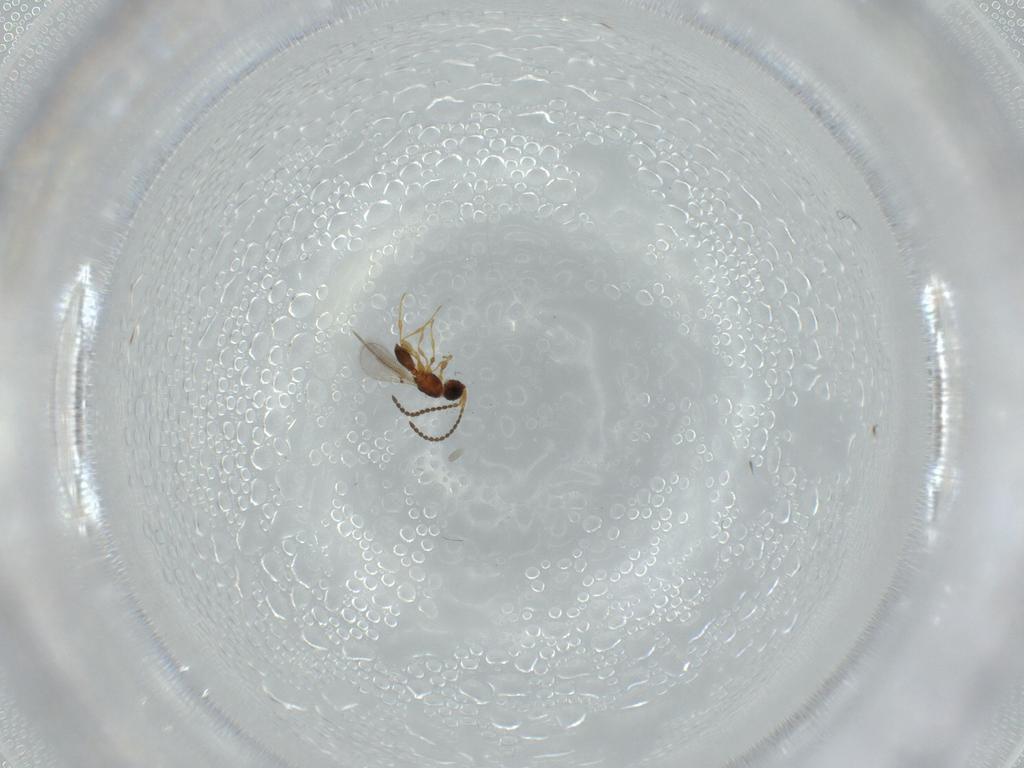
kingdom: Animalia
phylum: Arthropoda
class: Insecta
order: Hymenoptera
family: Diapriidae
